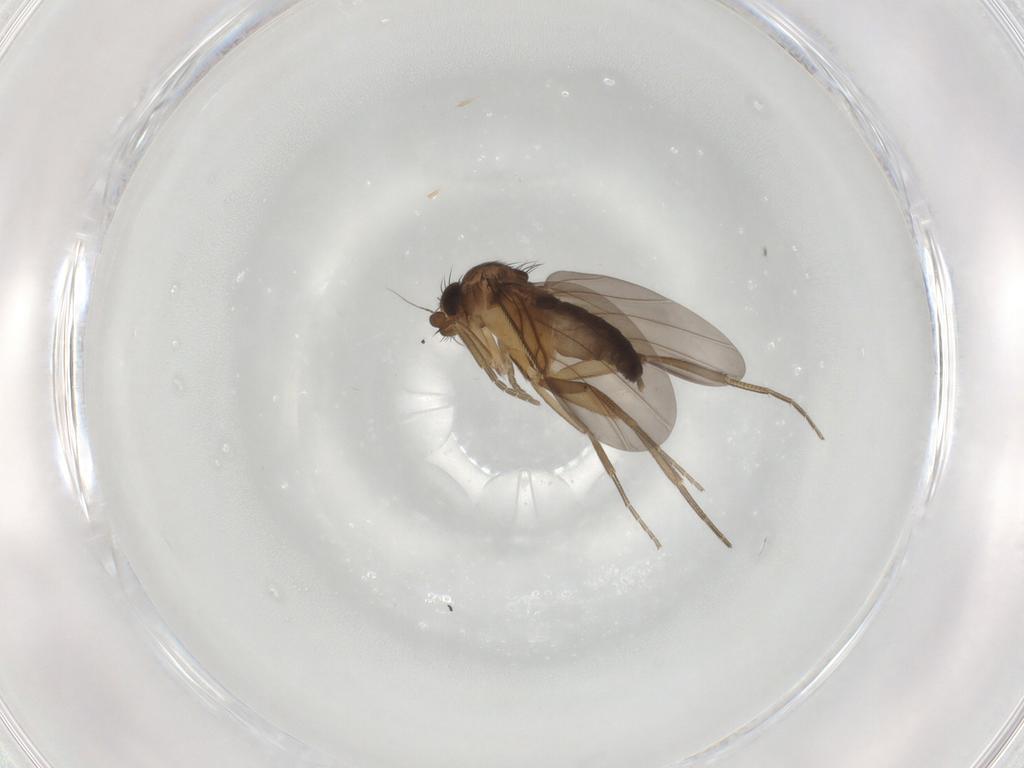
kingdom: Animalia
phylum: Arthropoda
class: Insecta
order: Diptera
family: Phoridae
